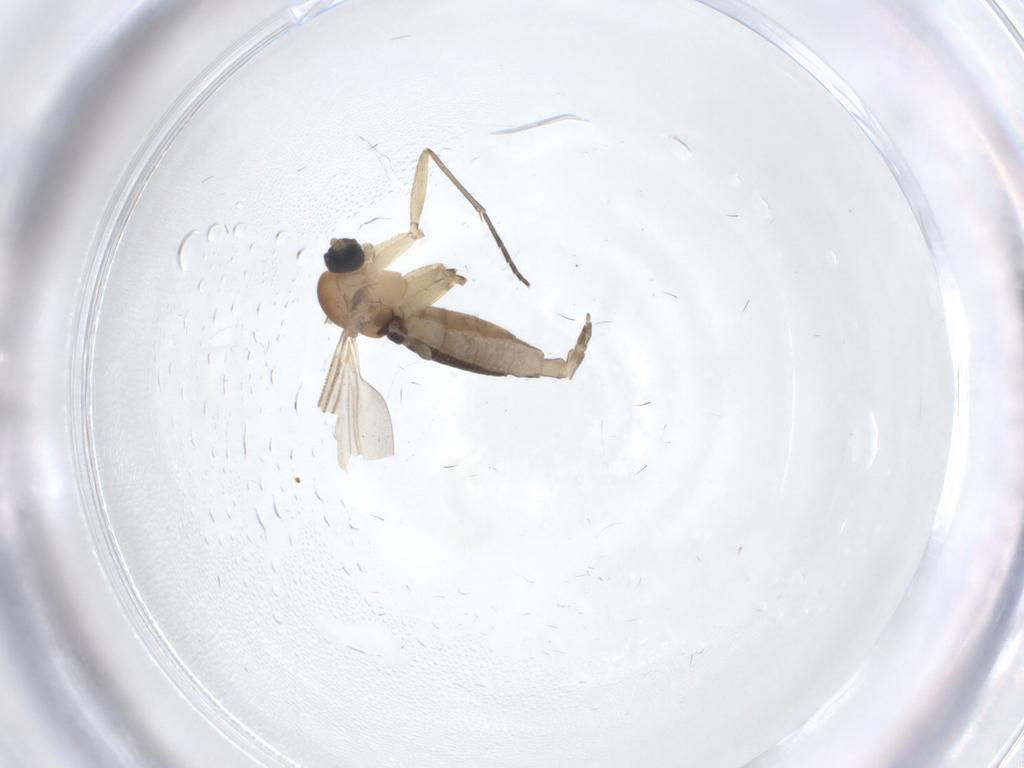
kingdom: Animalia
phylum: Arthropoda
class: Insecta
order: Diptera
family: Sciaridae
